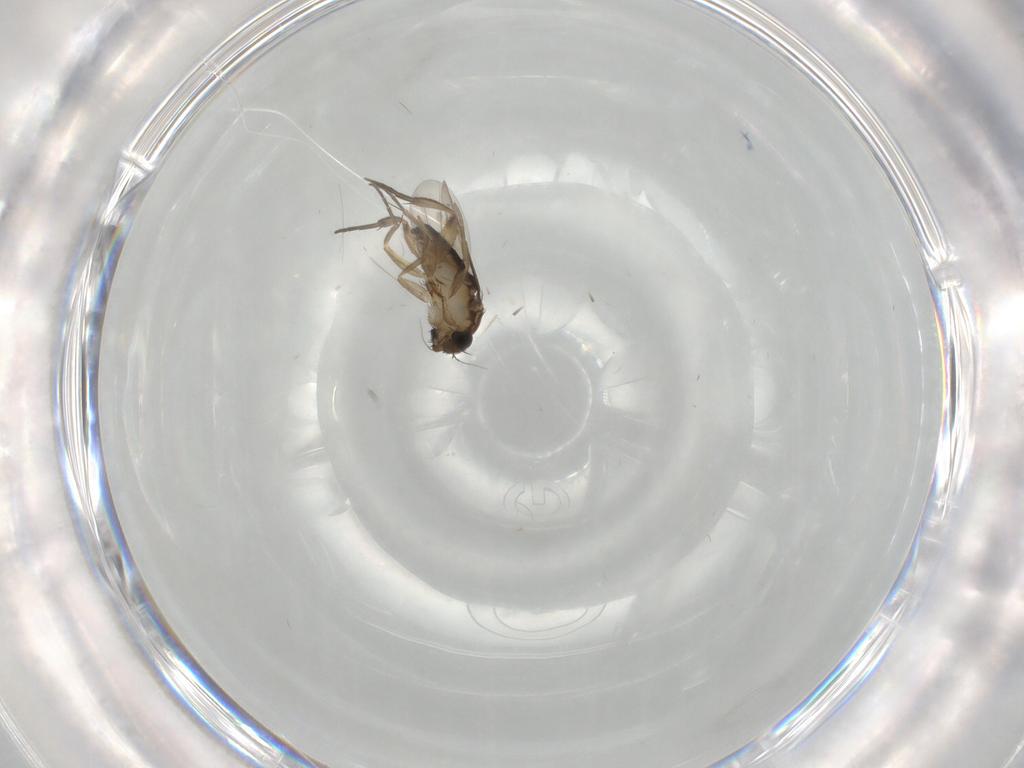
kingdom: Animalia
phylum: Arthropoda
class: Insecta
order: Diptera
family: Phoridae
